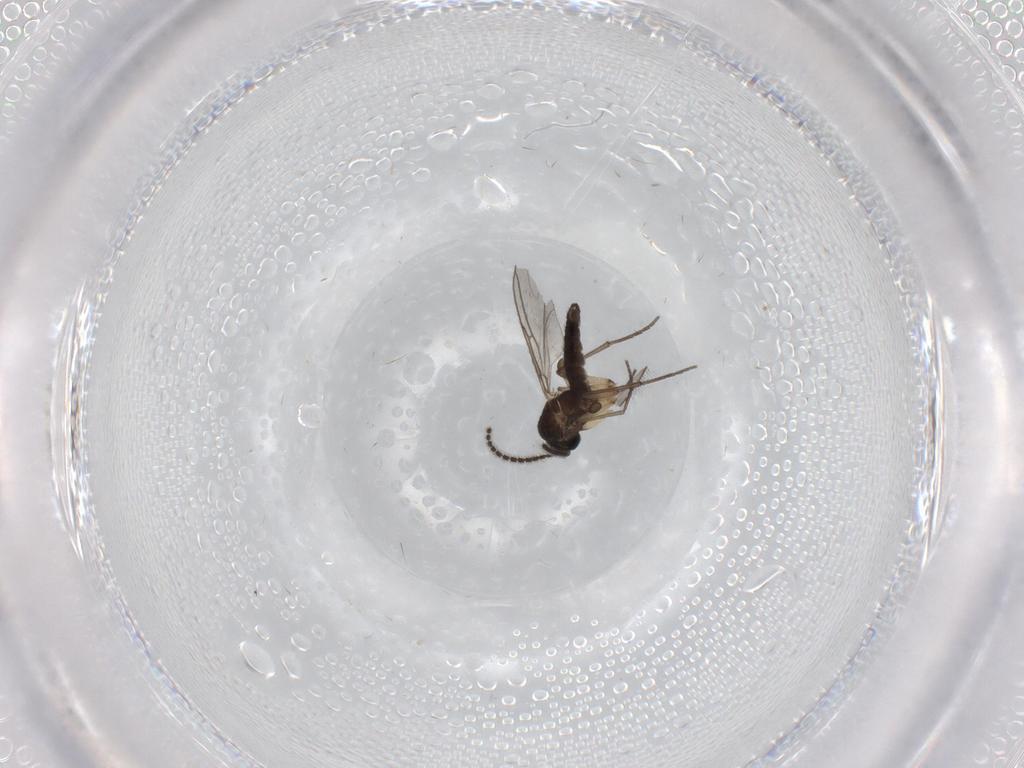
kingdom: Animalia
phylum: Arthropoda
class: Insecta
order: Diptera
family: Sciaridae
